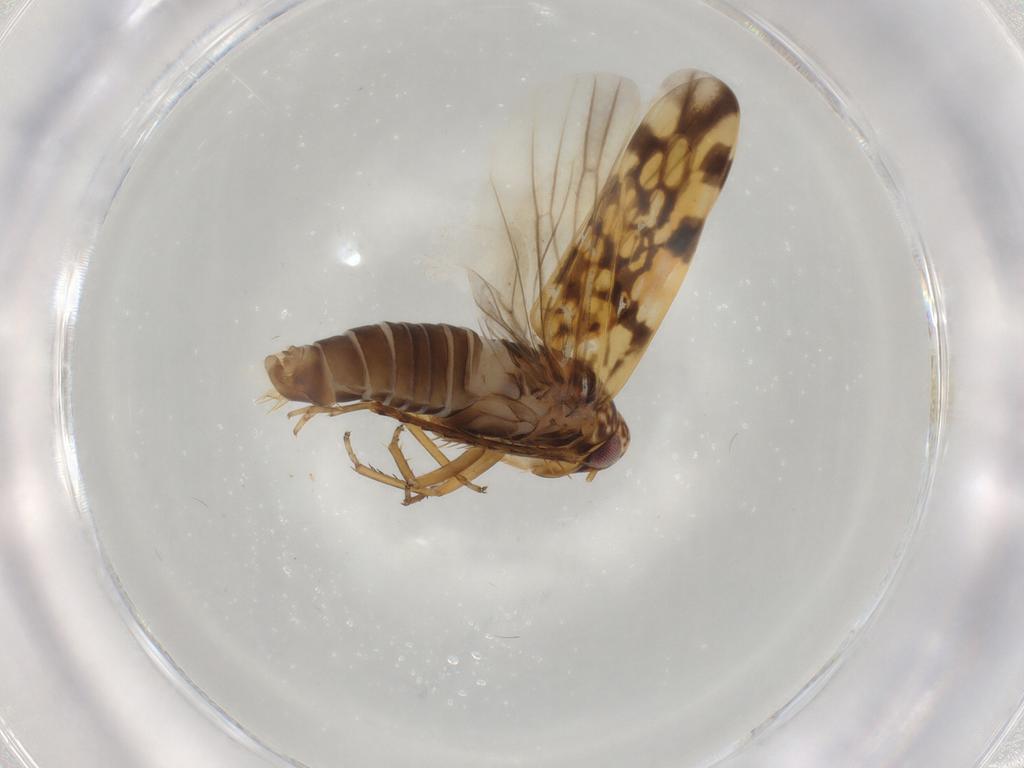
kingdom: Animalia
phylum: Arthropoda
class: Insecta
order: Hemiptera
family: Cicadellidae
